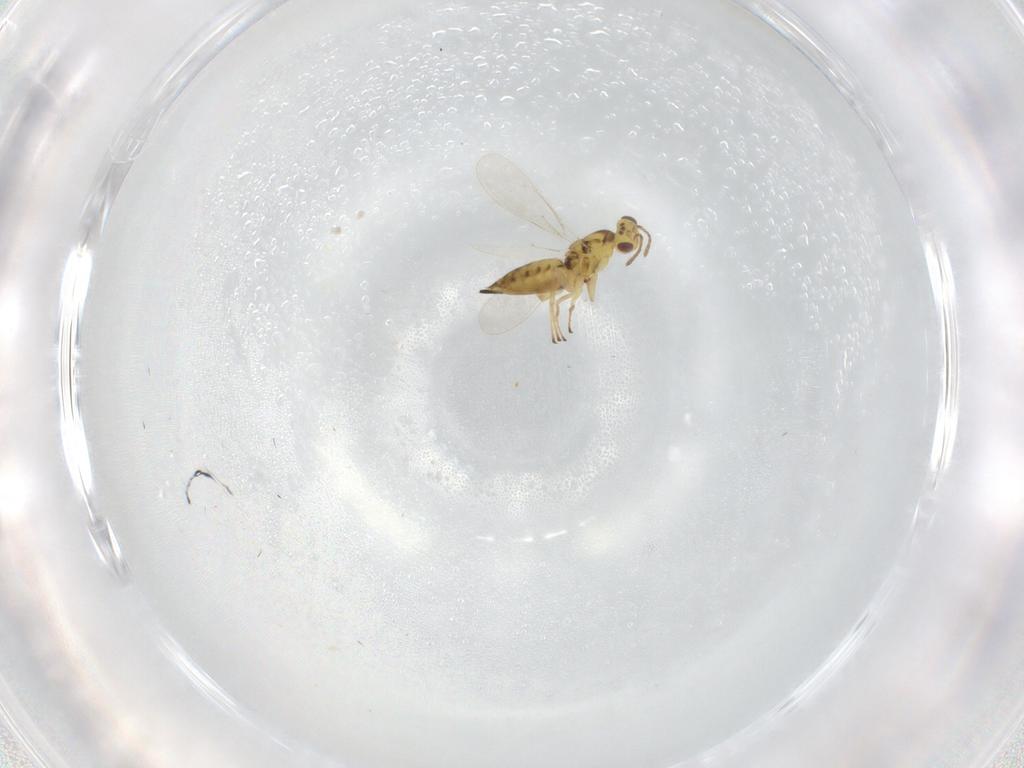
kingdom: Animalia
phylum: Arthropoda
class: Insecta
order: Hymenoptera
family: Eulophidae
